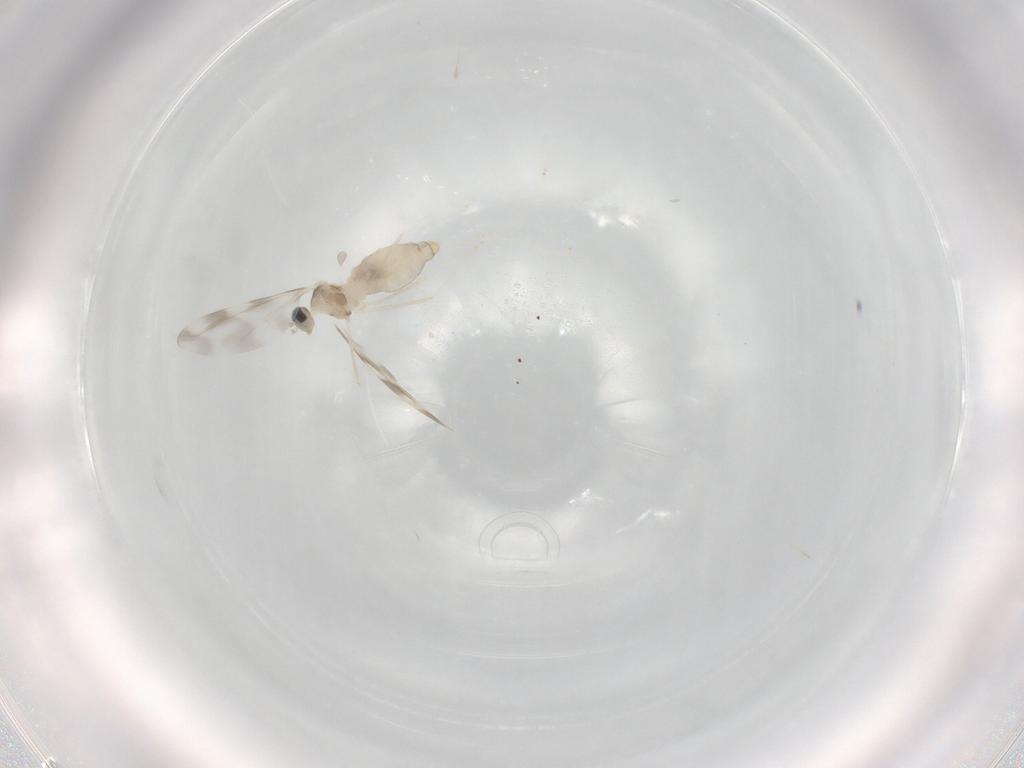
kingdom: Animalia
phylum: Arthropoda
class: Insecta
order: Diptera
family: Cecidomyiidae
